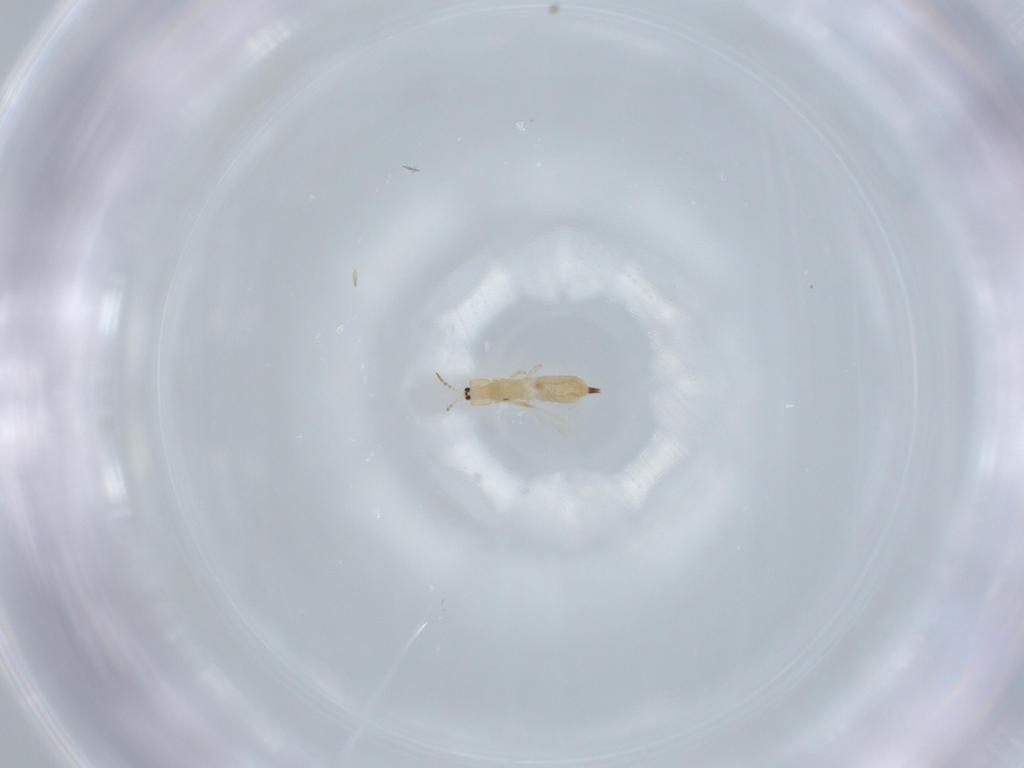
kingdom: Animalia
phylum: Arthropoda
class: Insecta
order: Thysanoptera
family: Phlaeothripidae
